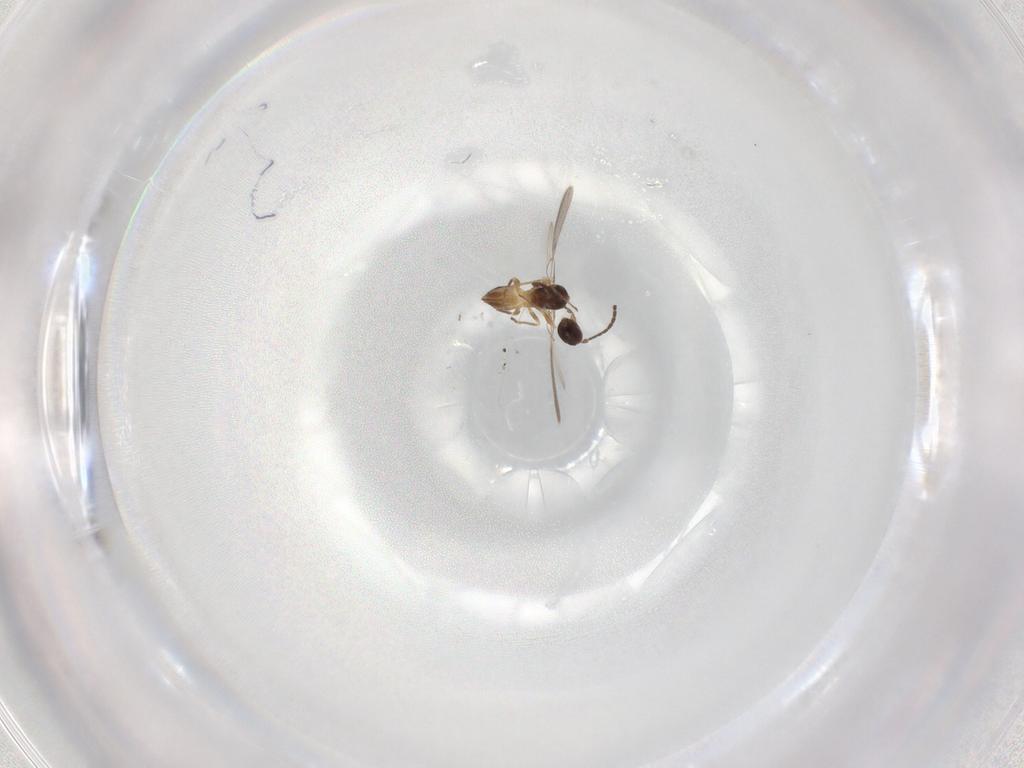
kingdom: Animalia
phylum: Arthropoda
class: Insecta
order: Hymenoptera
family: Mymaridae
